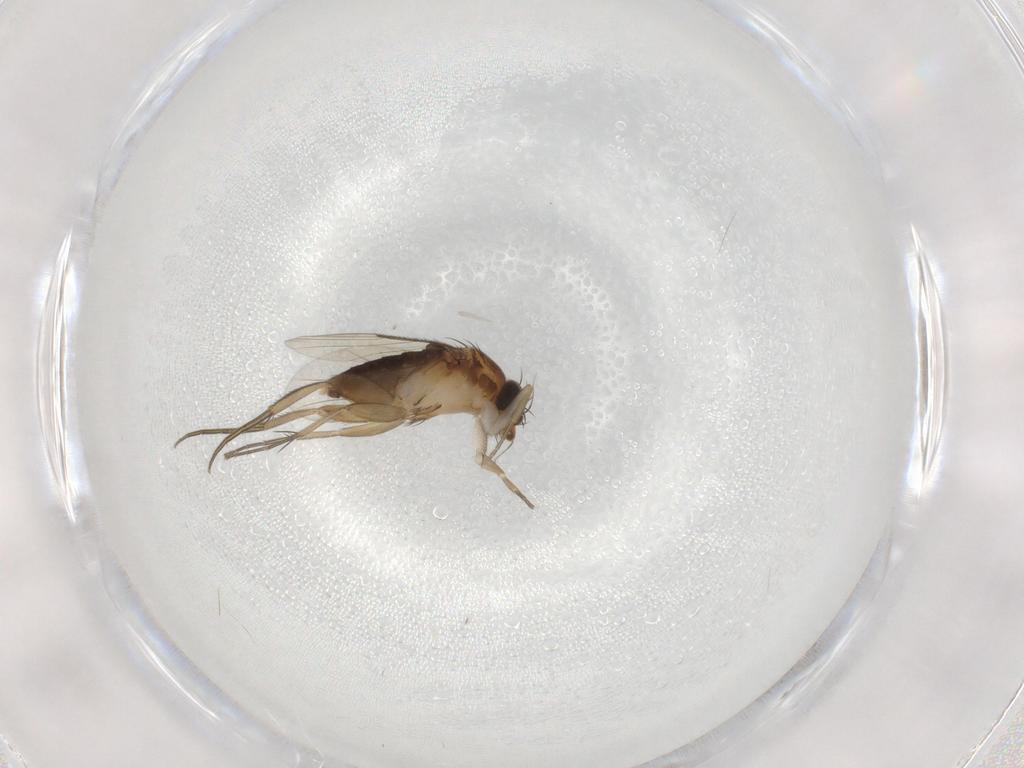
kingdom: Animalia
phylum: Arthropoda
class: Insecta
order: Diptera
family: Phoridae
